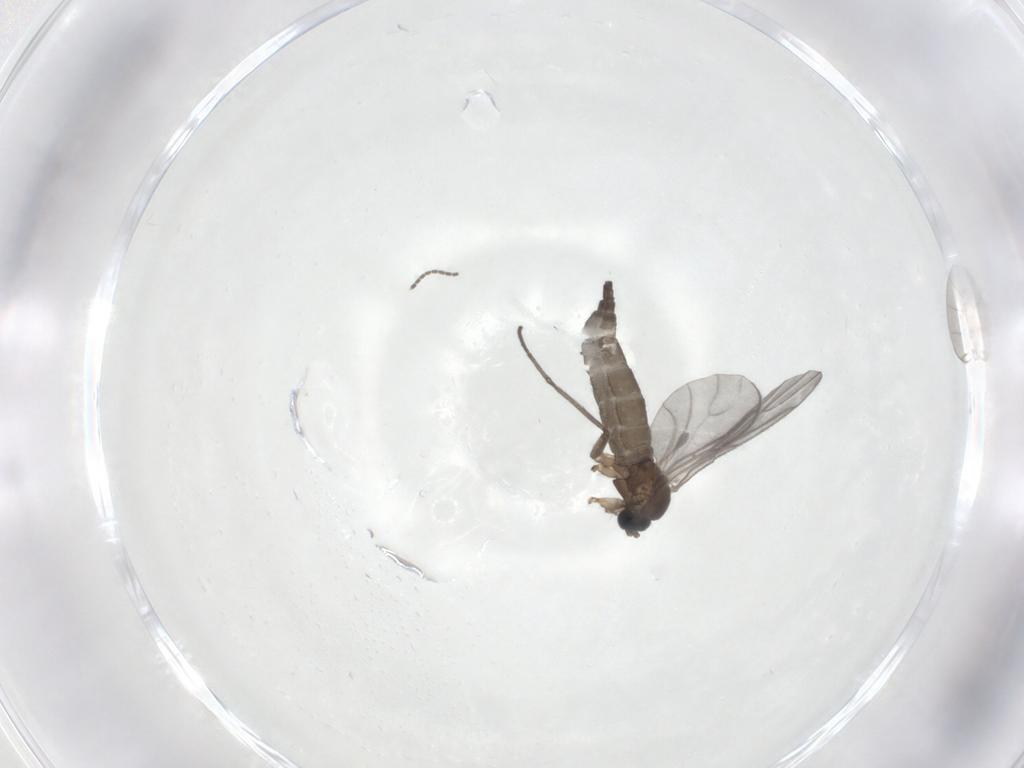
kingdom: Animalia
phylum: Arthropoda
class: Insecta
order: Diptera
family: Sciaridae
